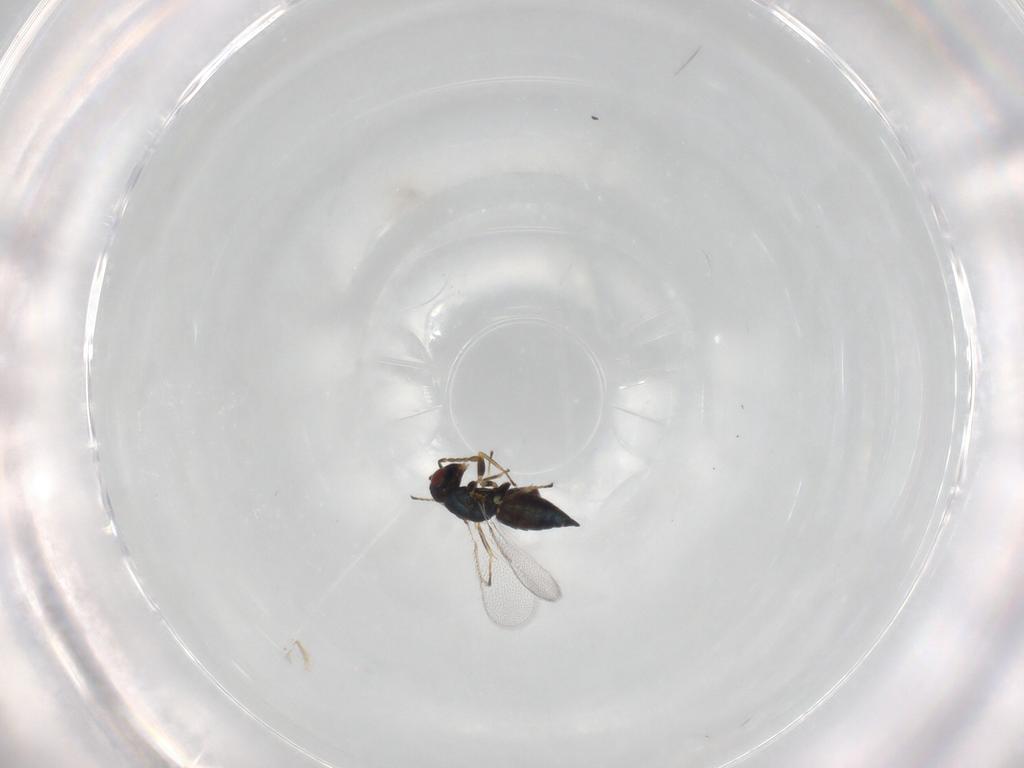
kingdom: Animalia
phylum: Arthropoda
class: Insecta
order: Hymenoptera
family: Eulophidae
